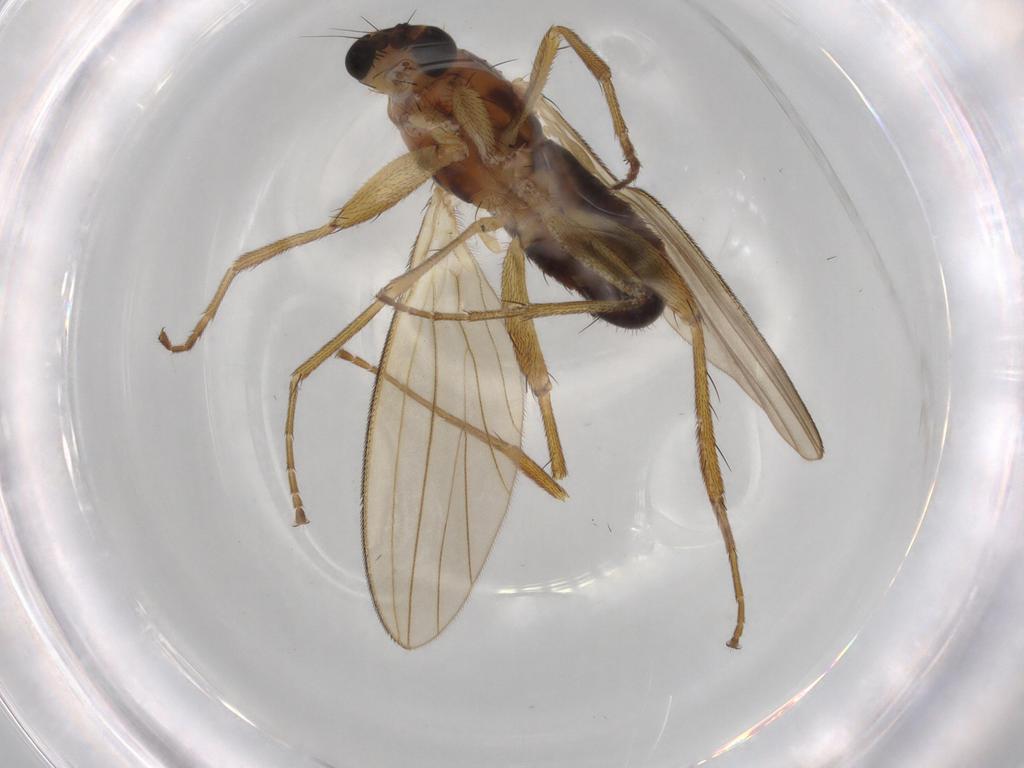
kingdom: Animalia
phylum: Arthropoda
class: Insecta
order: Diptera
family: Lonchopteridae
